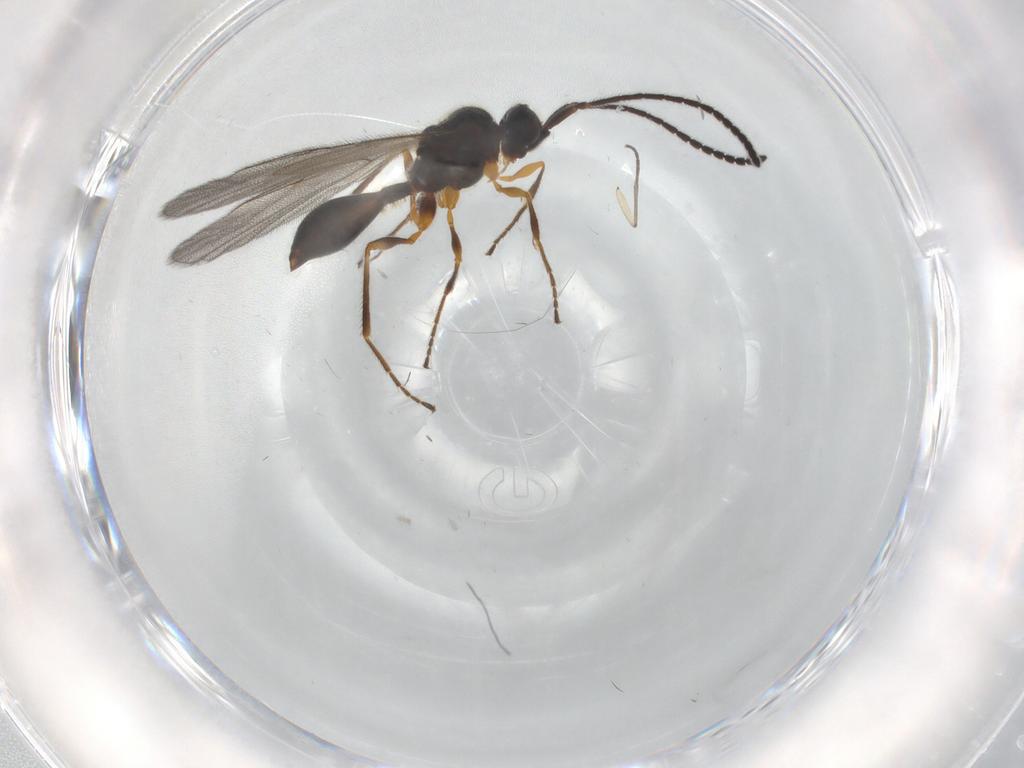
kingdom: Animalia
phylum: Arthropoda
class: Insecta
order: Hymenoptera
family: Diapriidae
